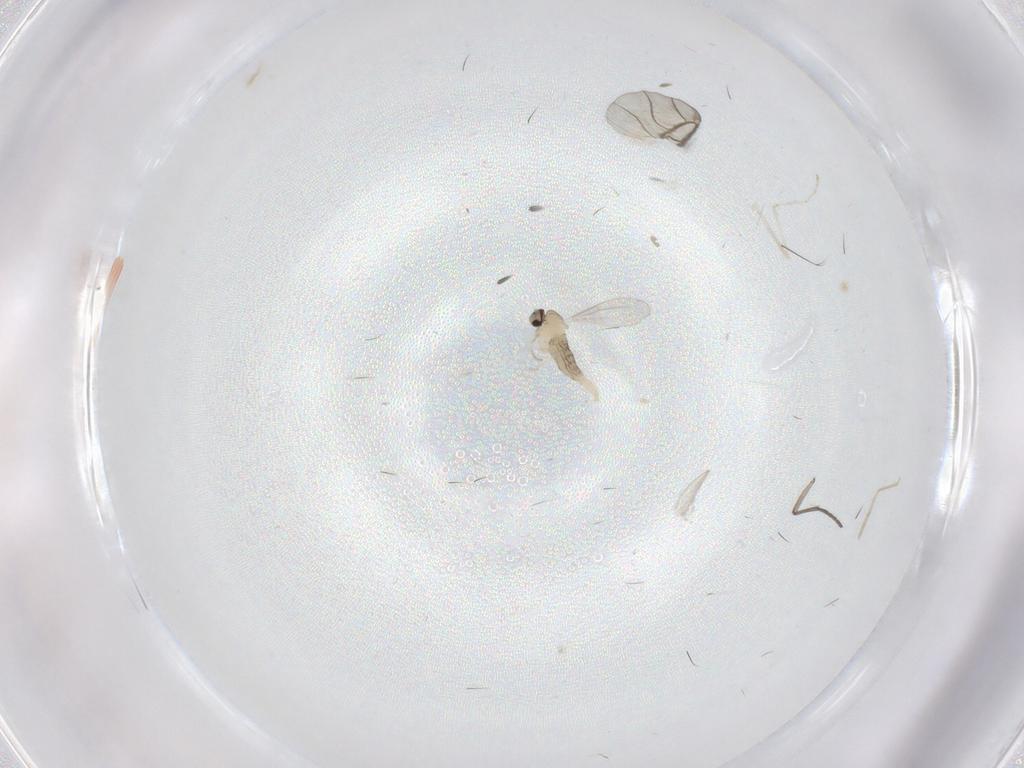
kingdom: Animalia
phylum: Arthropoda
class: Insecta
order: Diptera
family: Cecidomyiidae
